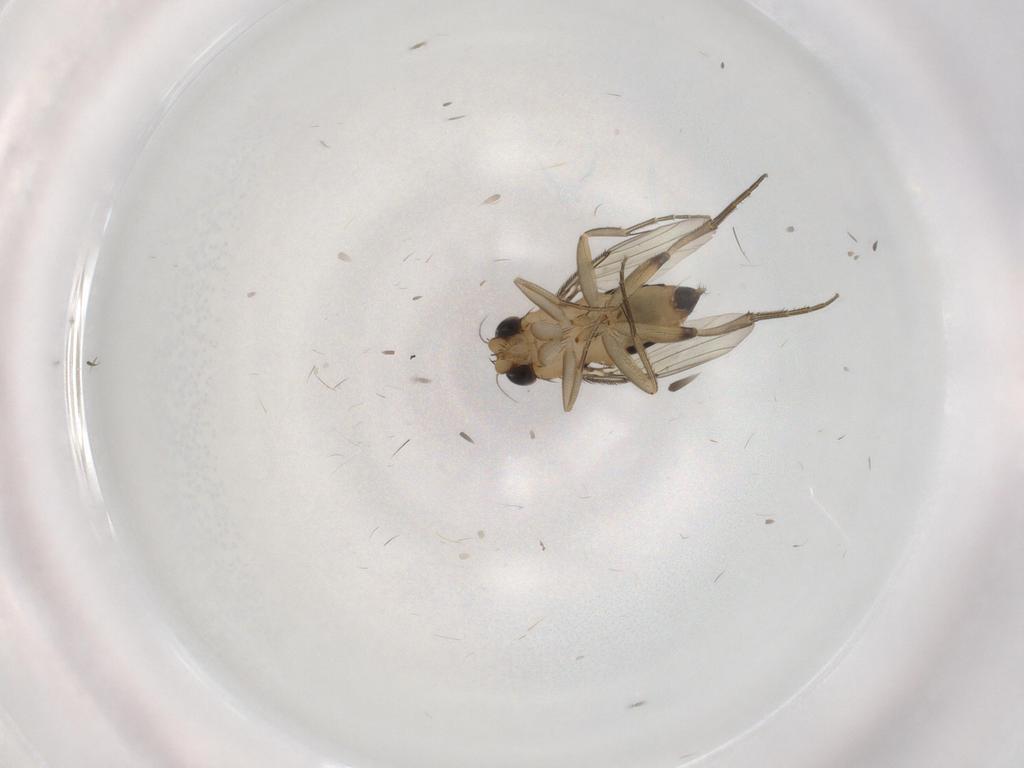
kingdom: Animalia
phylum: Arthropoda
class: Insecta
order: Diptera
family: Phoridae
